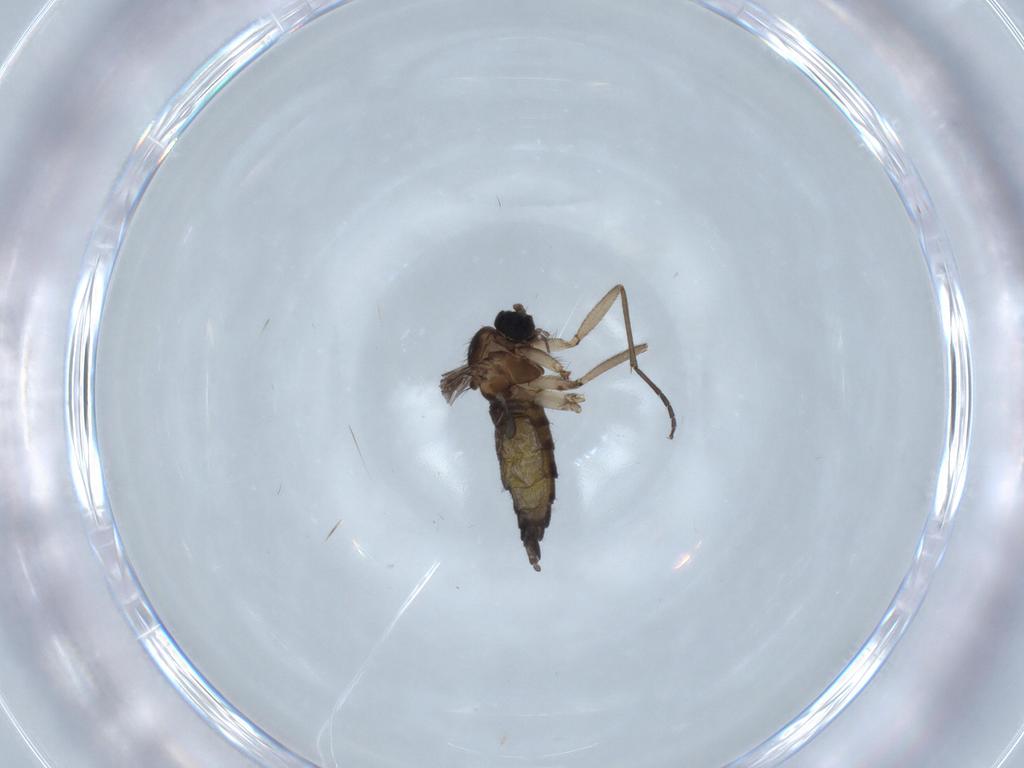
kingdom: Animalia
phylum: Arthropoda
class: Insecta
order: Diptera
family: Sciaridae
